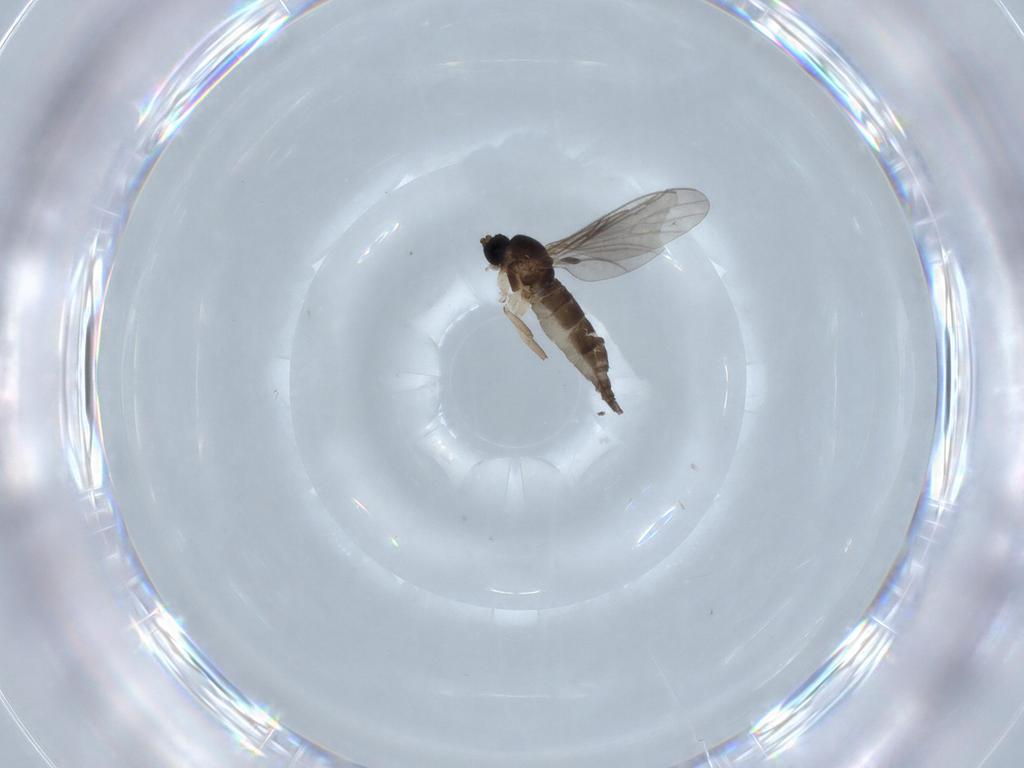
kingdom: Animalia
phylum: Arthropoda
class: Insecta
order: Diptera
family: Sciaridae
